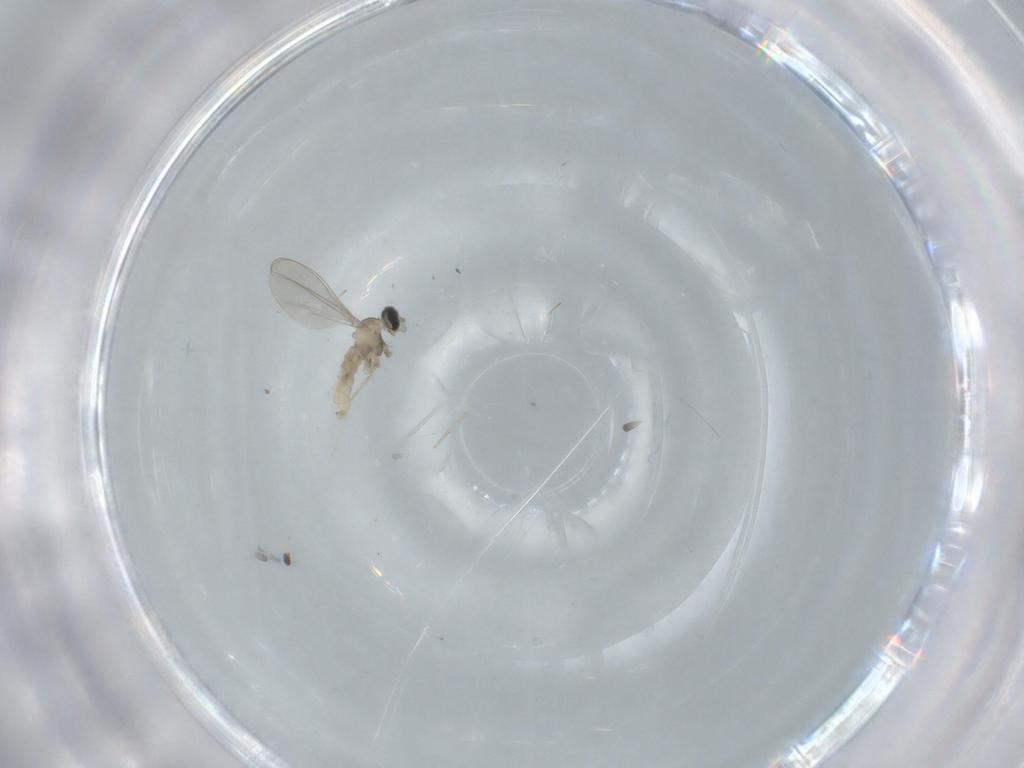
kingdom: Animalia
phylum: Arthropoda
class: Insecta
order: Diptera
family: Cecidomyiidae
